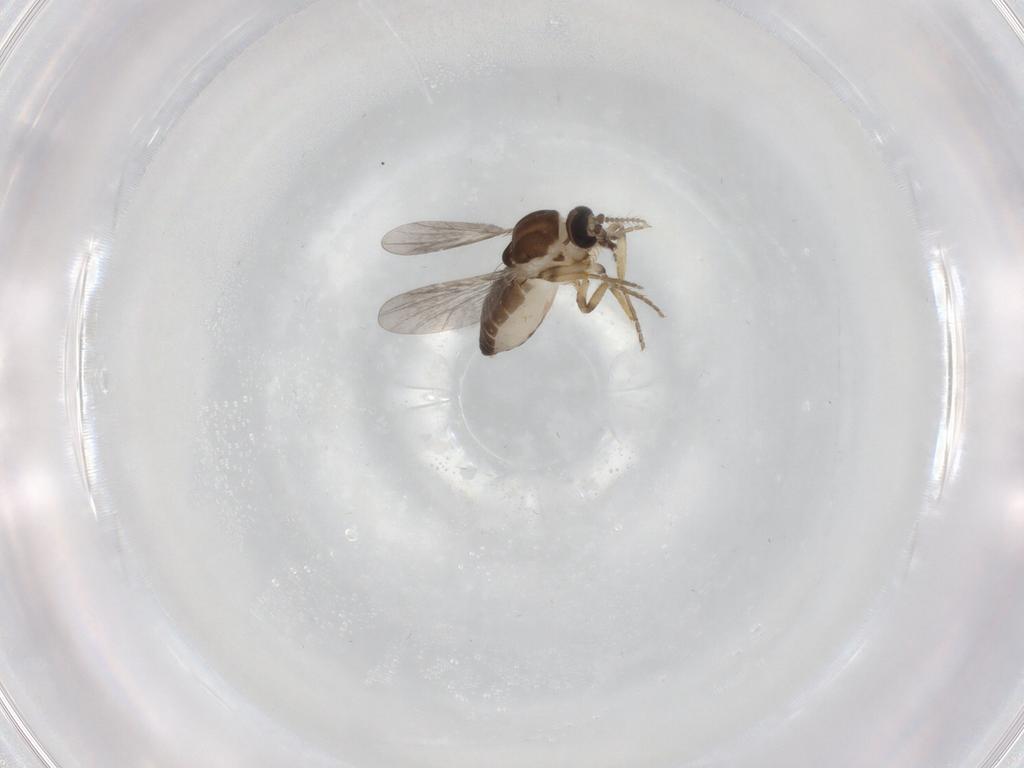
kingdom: Animalia
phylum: Arthropoda
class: Insecta
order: Diptera
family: Ceratopogonidae
